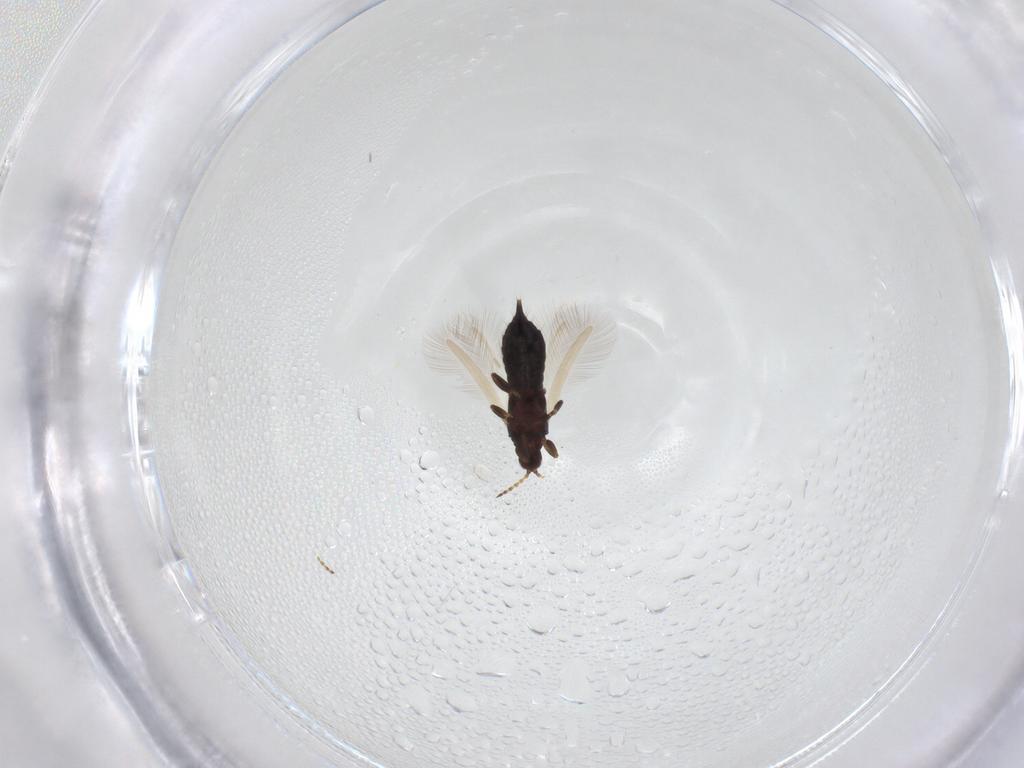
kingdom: Animalia
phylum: Arthropoda
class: Insecta
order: Thysanoptera
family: Phlaeothripidae
